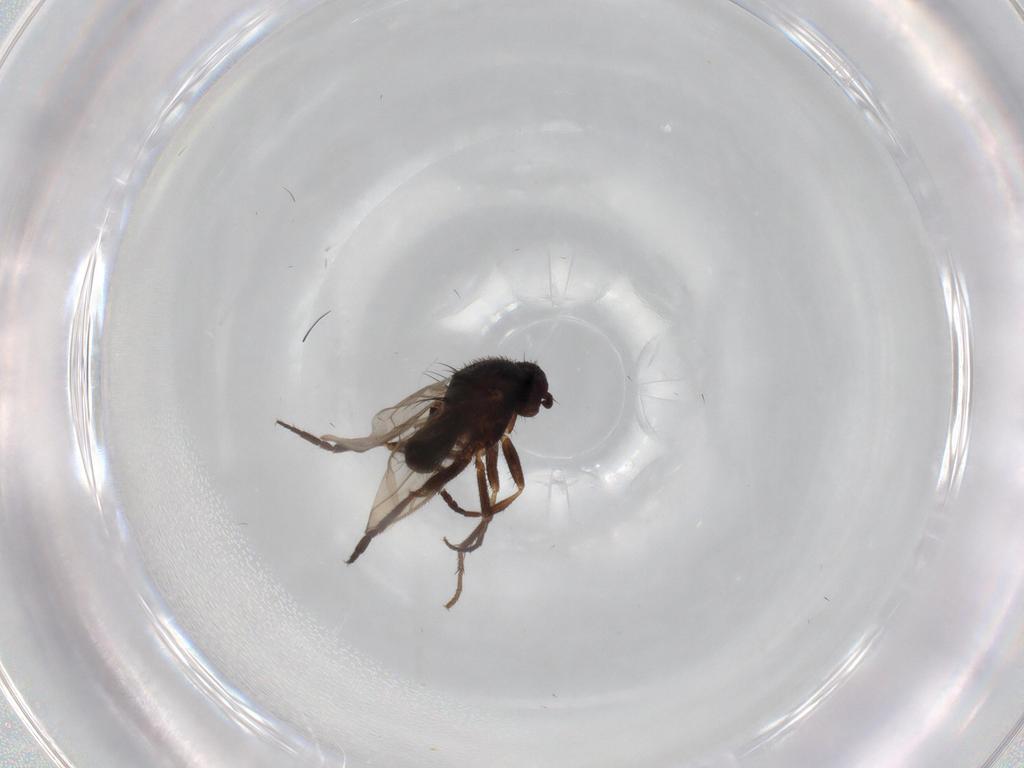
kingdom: Animalia
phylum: Arthropoda
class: Insecta
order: Diptera
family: Sphaeroceridae
